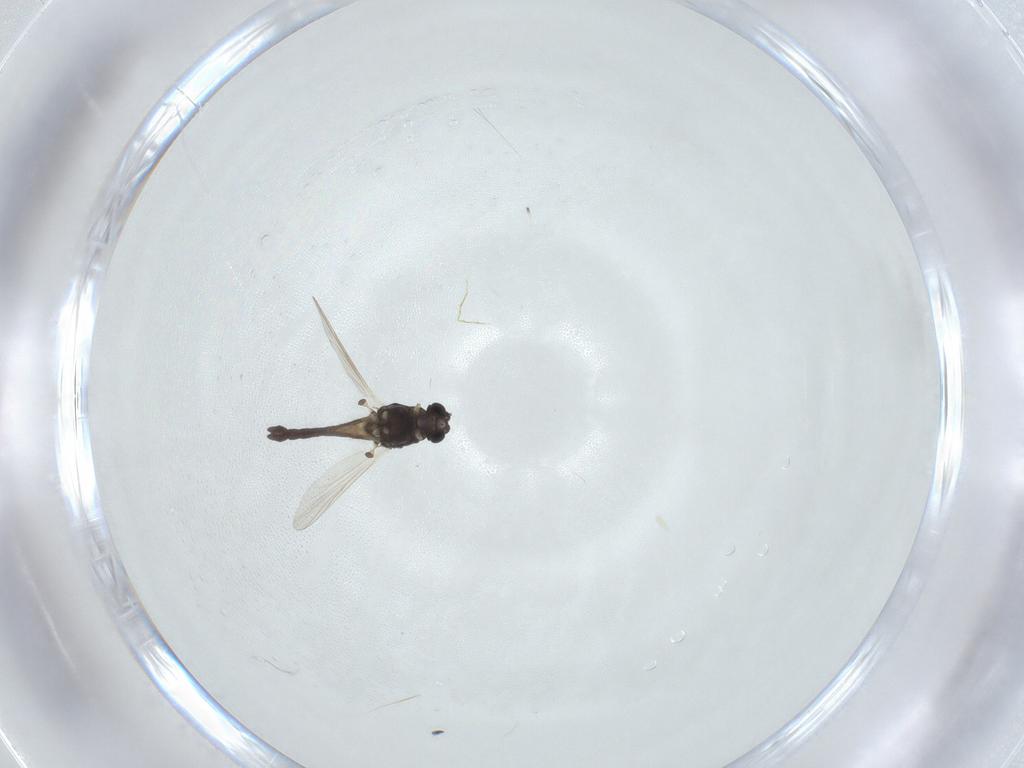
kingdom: Animalia
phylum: Arthropoda
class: Insecta
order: Diptera
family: Chironomidae
